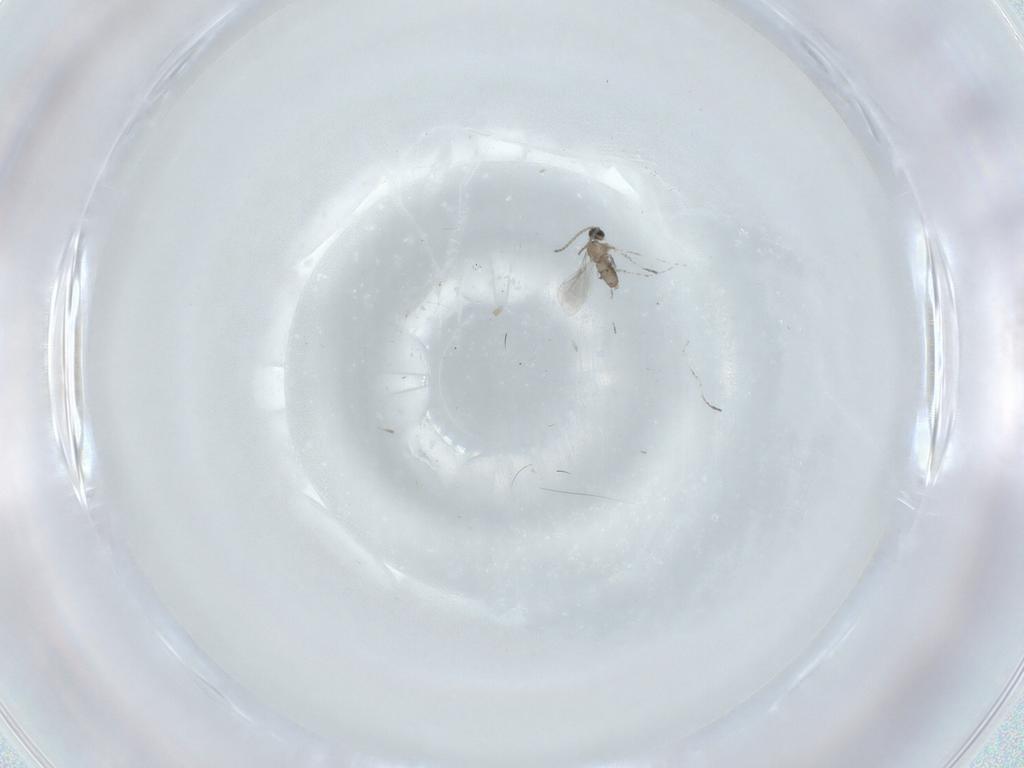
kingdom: Animalia
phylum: Arthropoda
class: Insecta
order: Diptera
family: Cecidomyiidae
